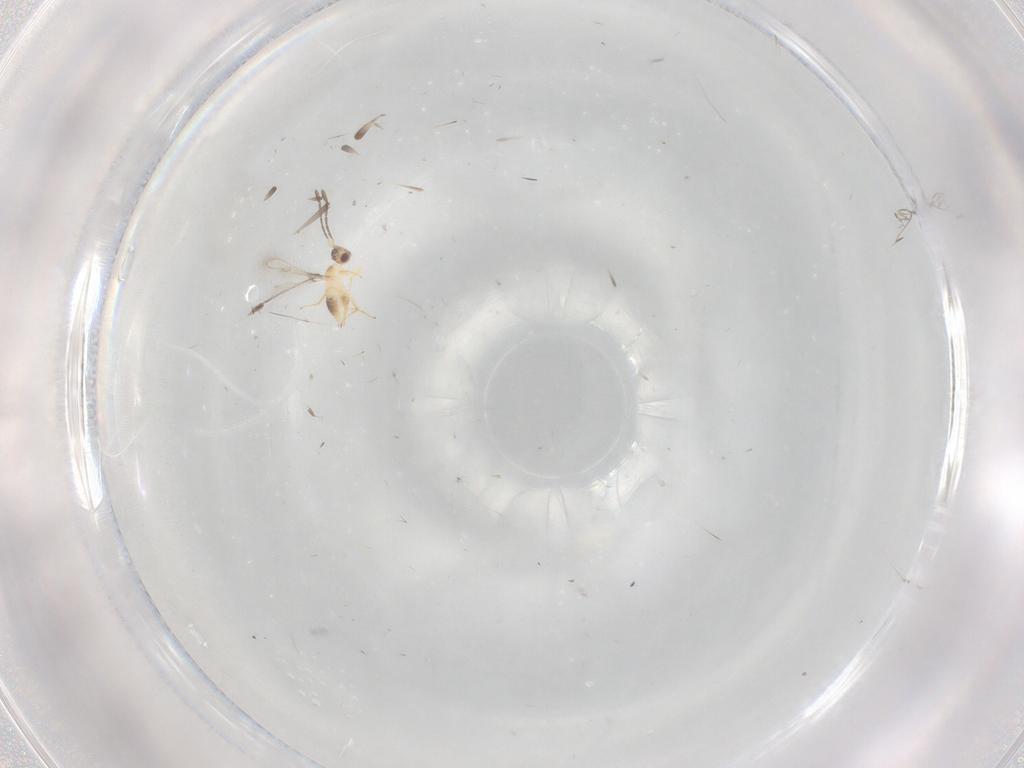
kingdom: Animalia
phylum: Arthropoda
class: Insecta
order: Hymenoptera
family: Mymaridae
